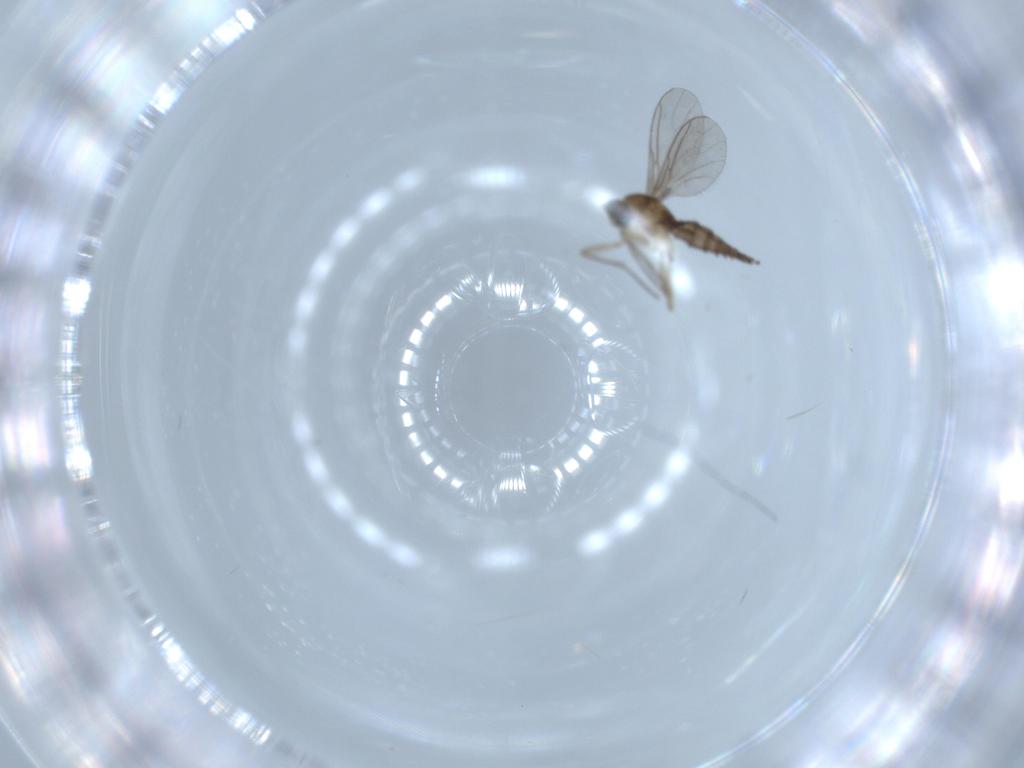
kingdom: Animalia
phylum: Arthropoda
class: Insecta
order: Diptera
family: Sciaridae
